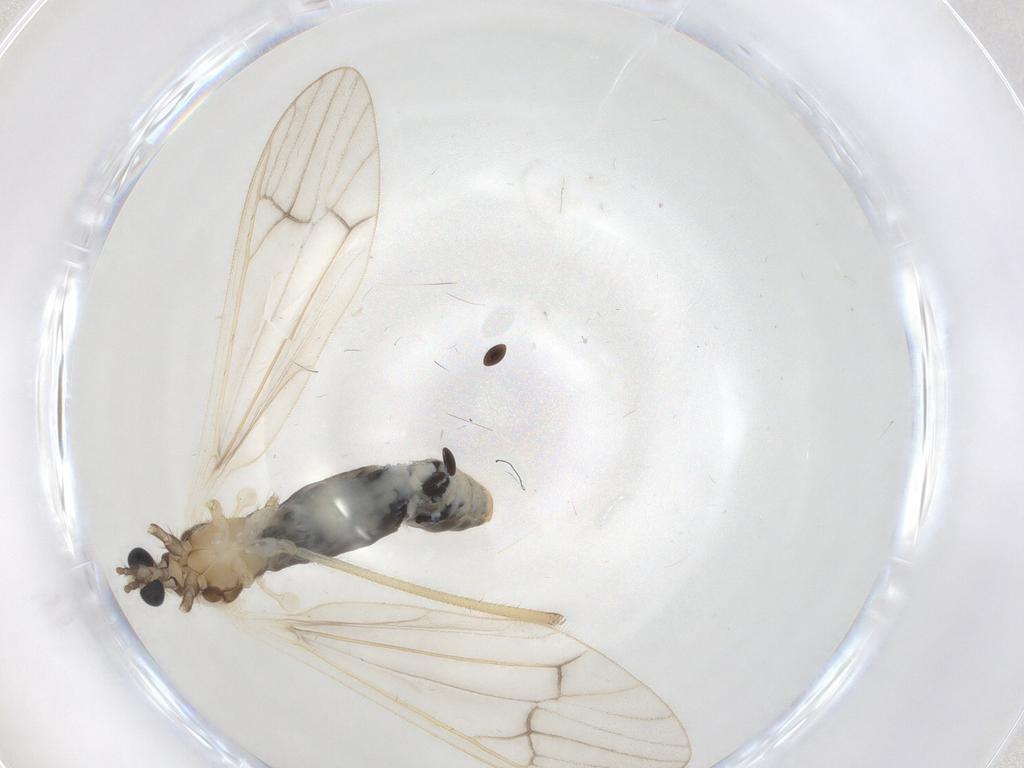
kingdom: Animalia
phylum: Arthropoda
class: Insecta
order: Diptera
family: Limoniidae
